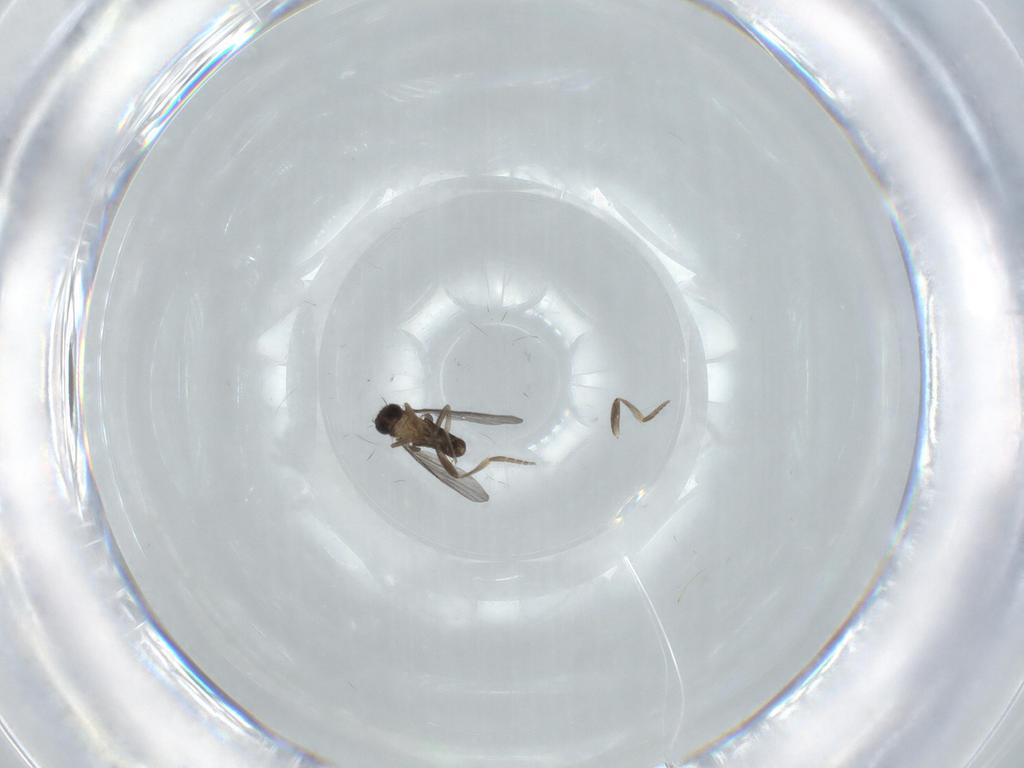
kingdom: Animalia
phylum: Arthropoda
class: Insecta
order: Diptera
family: Phoridae
